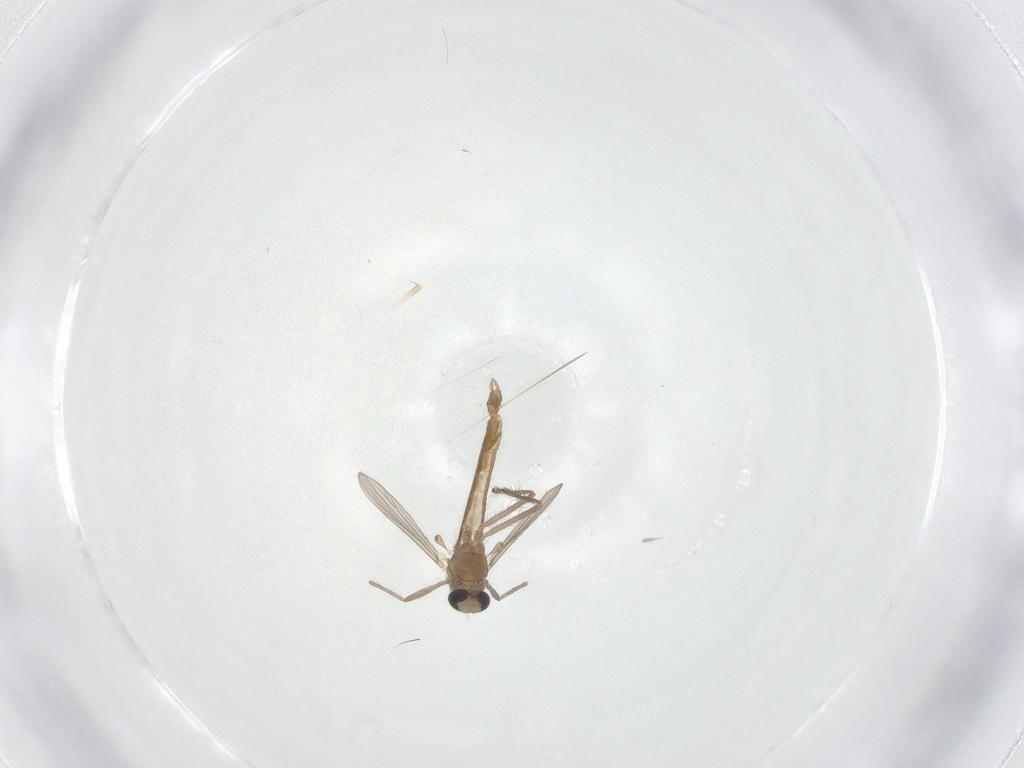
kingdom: Animalia
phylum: Arthropoda
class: Insecta
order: Diptera
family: Chironomidae
